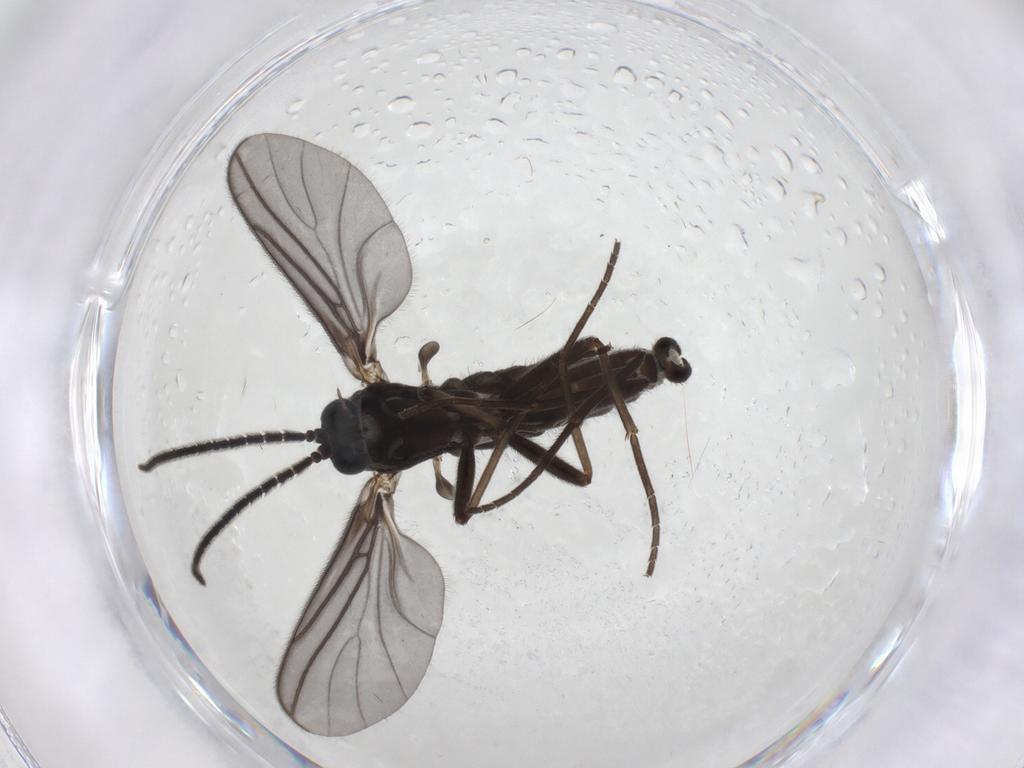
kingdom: Animalia
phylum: Arthropoda
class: Insecta
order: Diptera
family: Sciaridae
